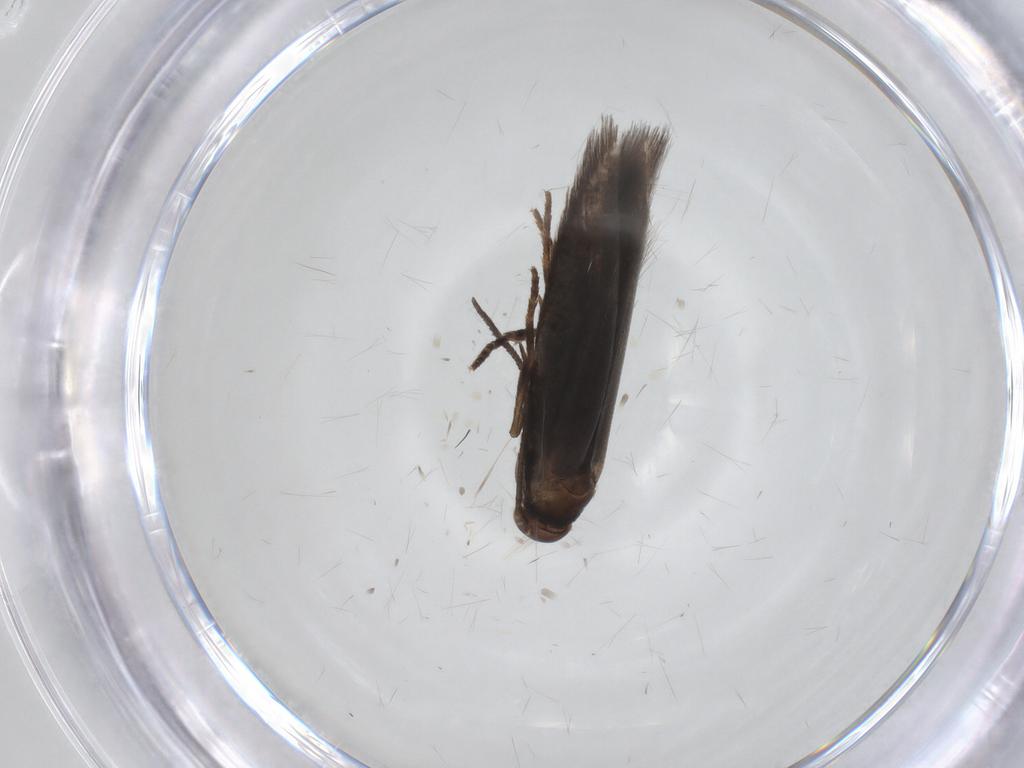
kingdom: Animalia
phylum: Arthropoda
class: Insecta
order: Lepidoptera
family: Elachistidae
